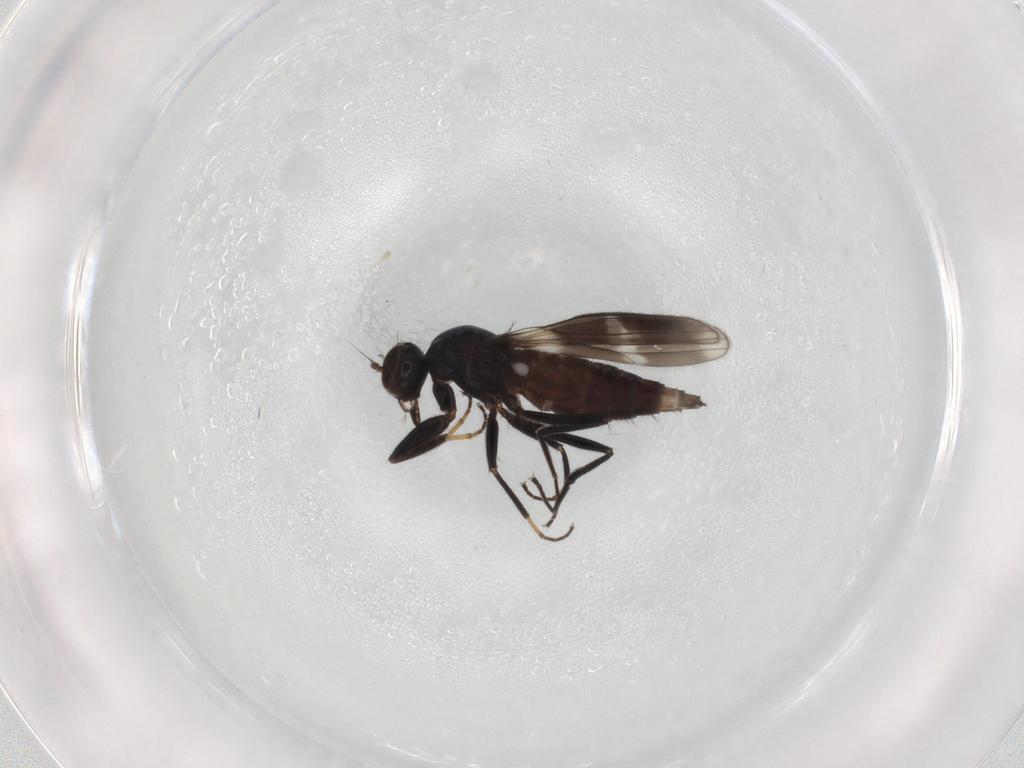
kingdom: Animalia
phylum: Arthropoda
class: Insecta
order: Diptera
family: Hybotidae
